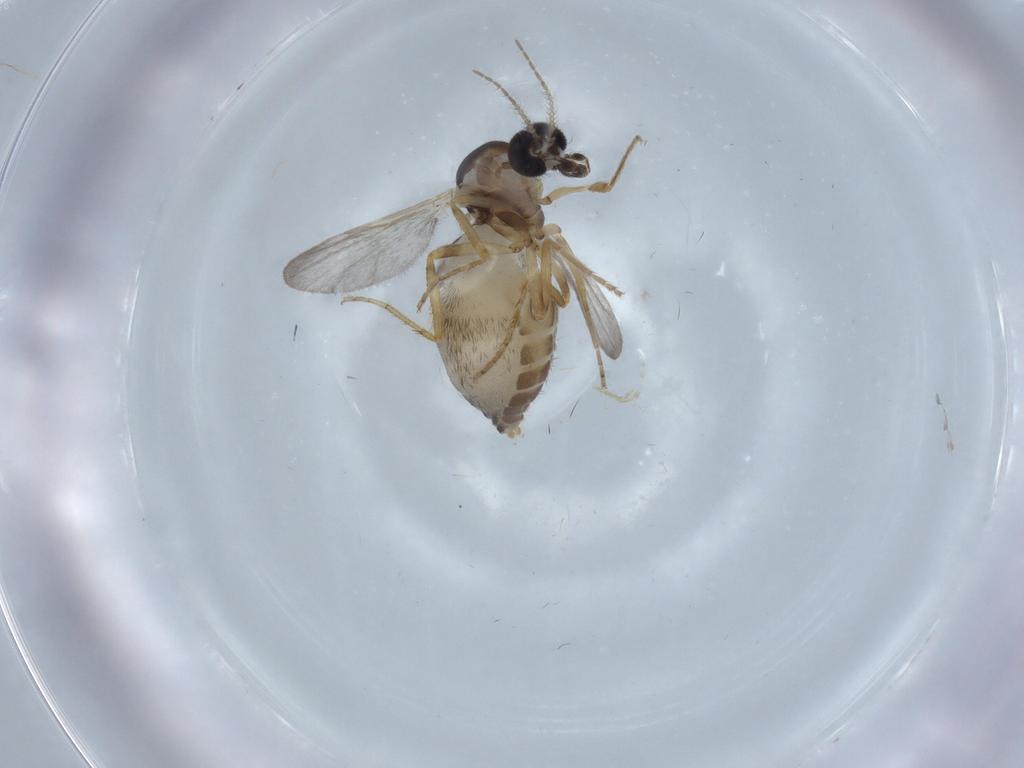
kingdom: Animalia
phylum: Arthropoda
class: Insecta
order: Diptera
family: Ceratopogonidae
